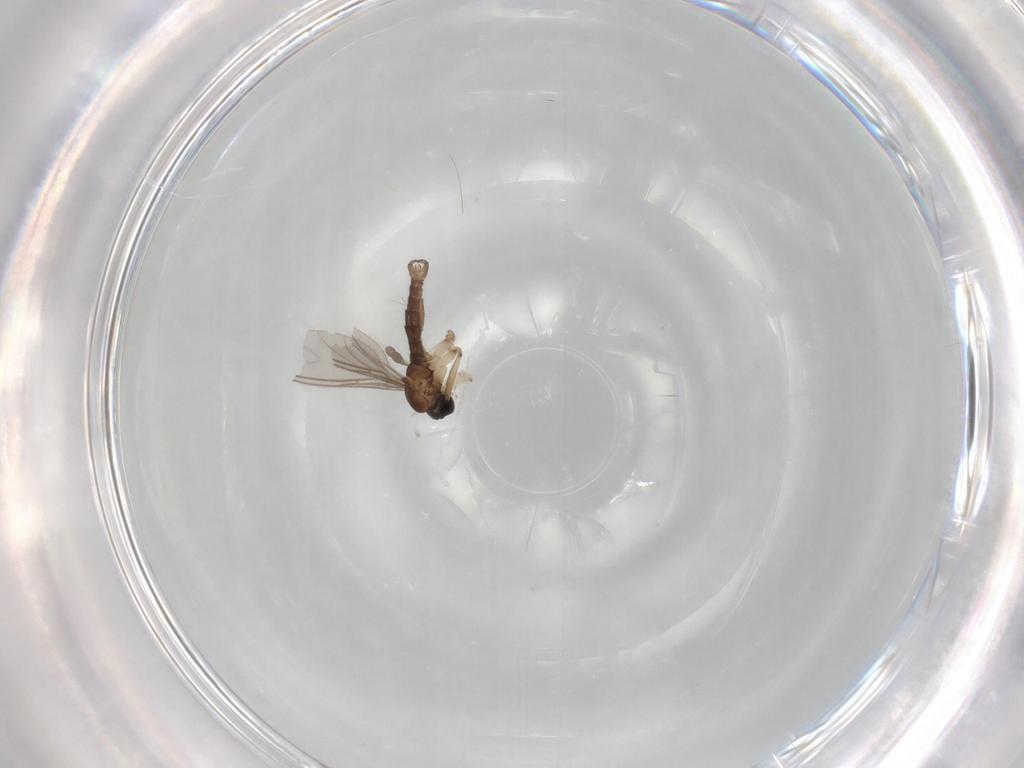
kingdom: Animalia
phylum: Arthropoda
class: Insecta
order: Diptera
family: Sciaridae
